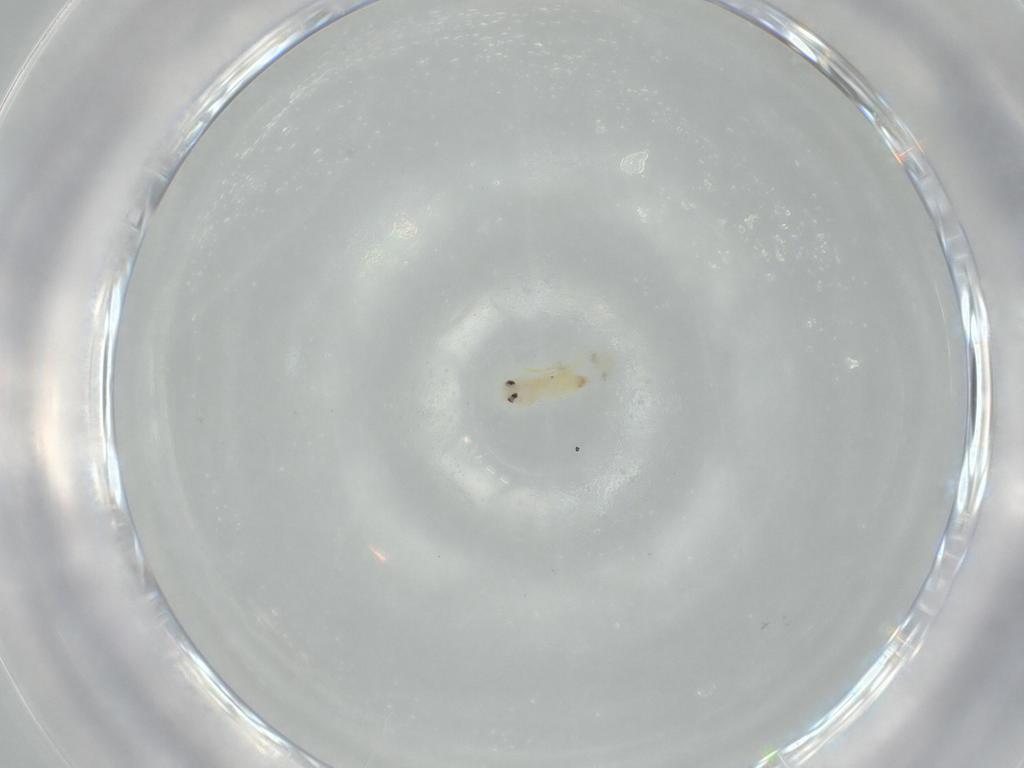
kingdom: Animalia
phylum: Arthropoda
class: Insecta
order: Hemiptera
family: Aleyrodidae
